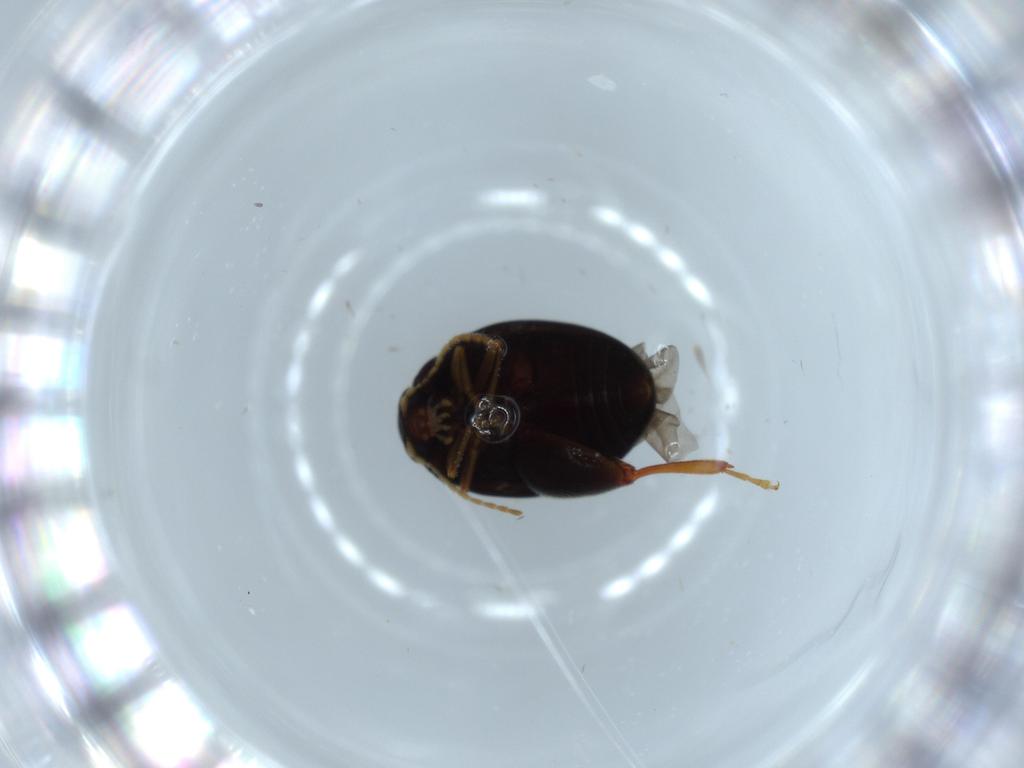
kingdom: Animalia
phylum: Arthropoda
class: Insecta
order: Coleoptera
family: Chrysomelidae
